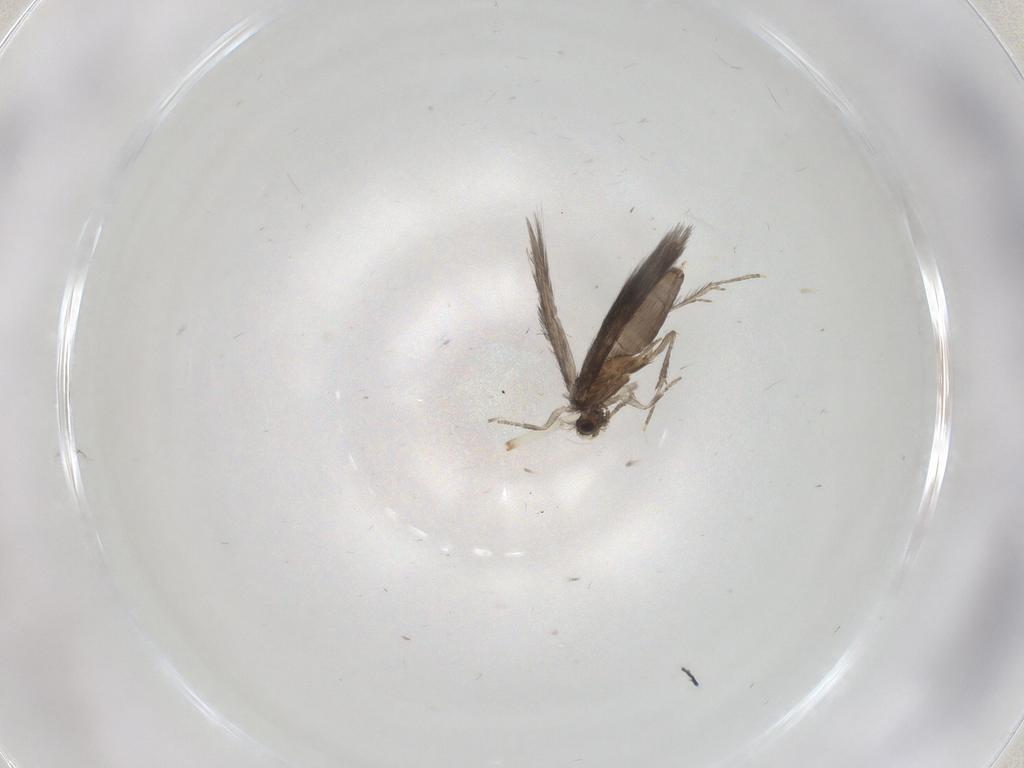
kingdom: Animalia
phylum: Arthropoda
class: Insecta
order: Trichoptera
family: Hydroptilidae
